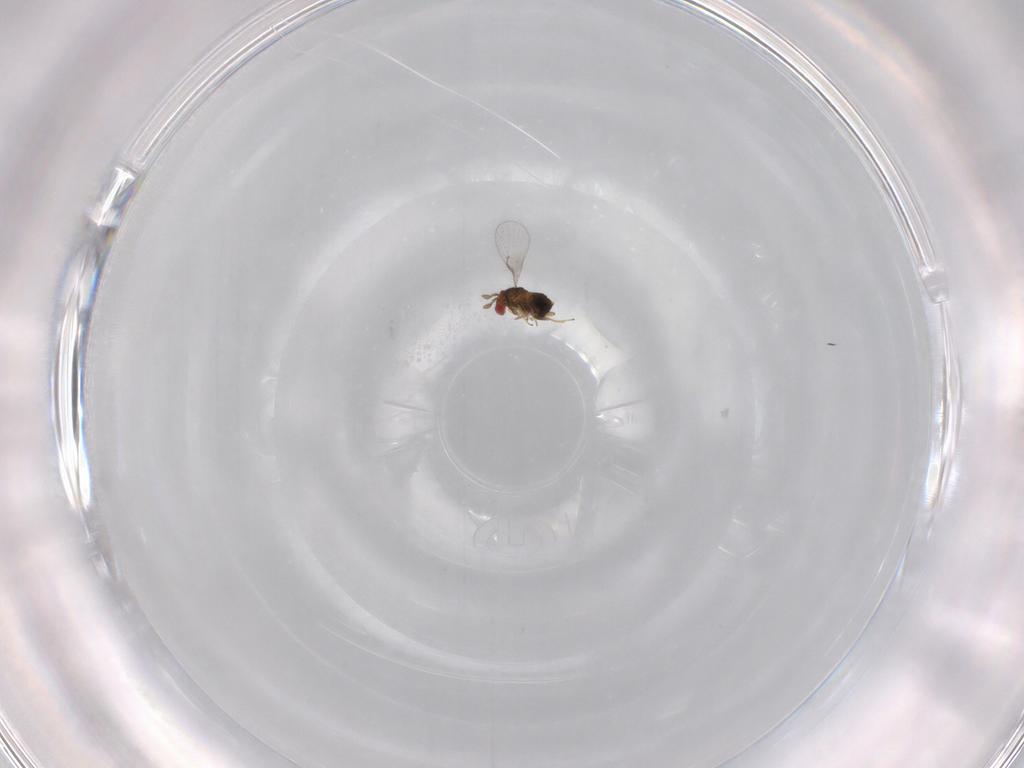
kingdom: Animalia
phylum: Arthropoda
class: Insecta
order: Hymenoptera
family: Trichogrammatidae
